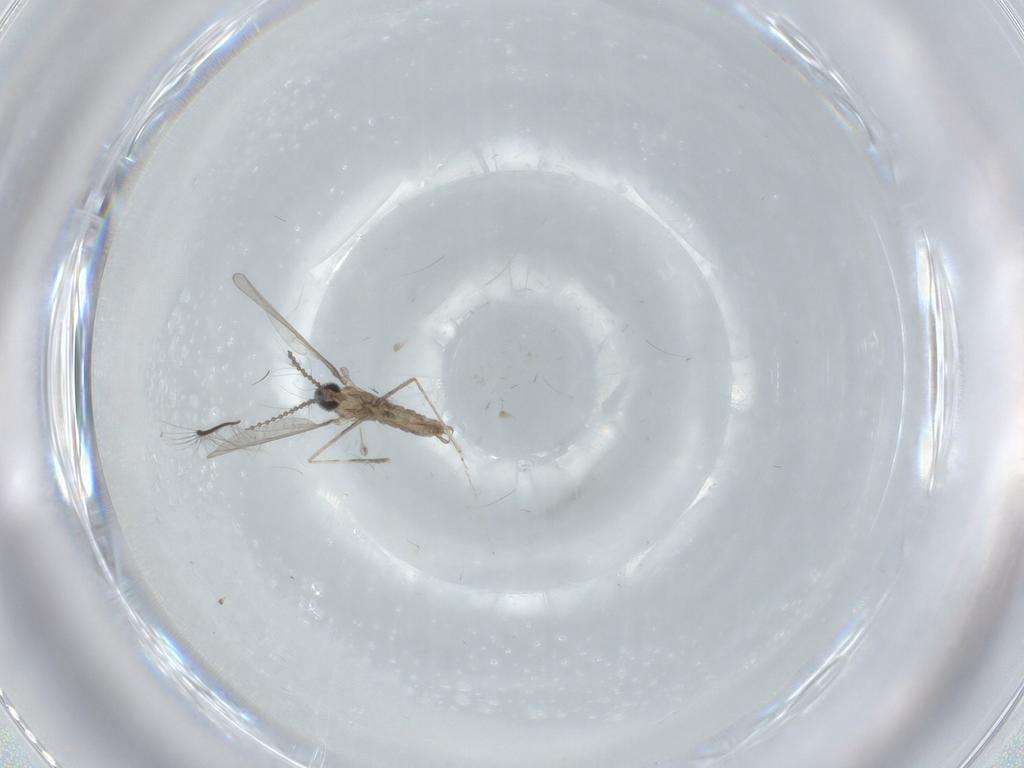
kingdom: Animalia
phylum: Arthropoda
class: Insecta
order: Diptera
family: Chironomidae
